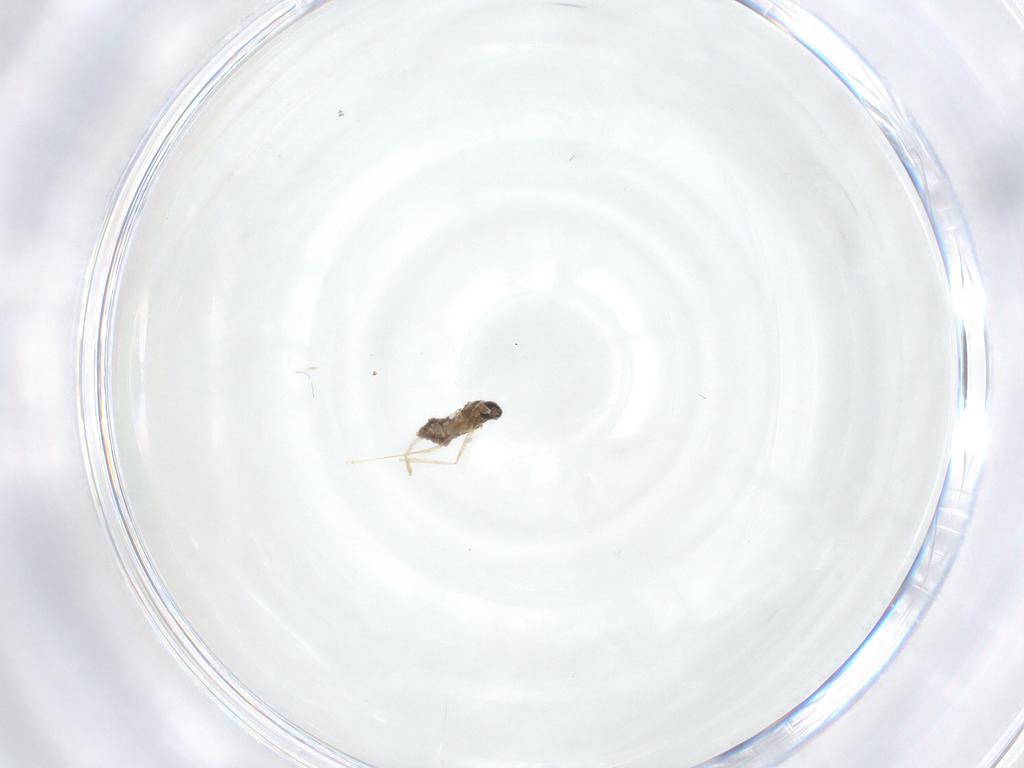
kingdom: Animalia
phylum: Arthropoda
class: Insecta
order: Diptera
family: Cecidomyiidae
